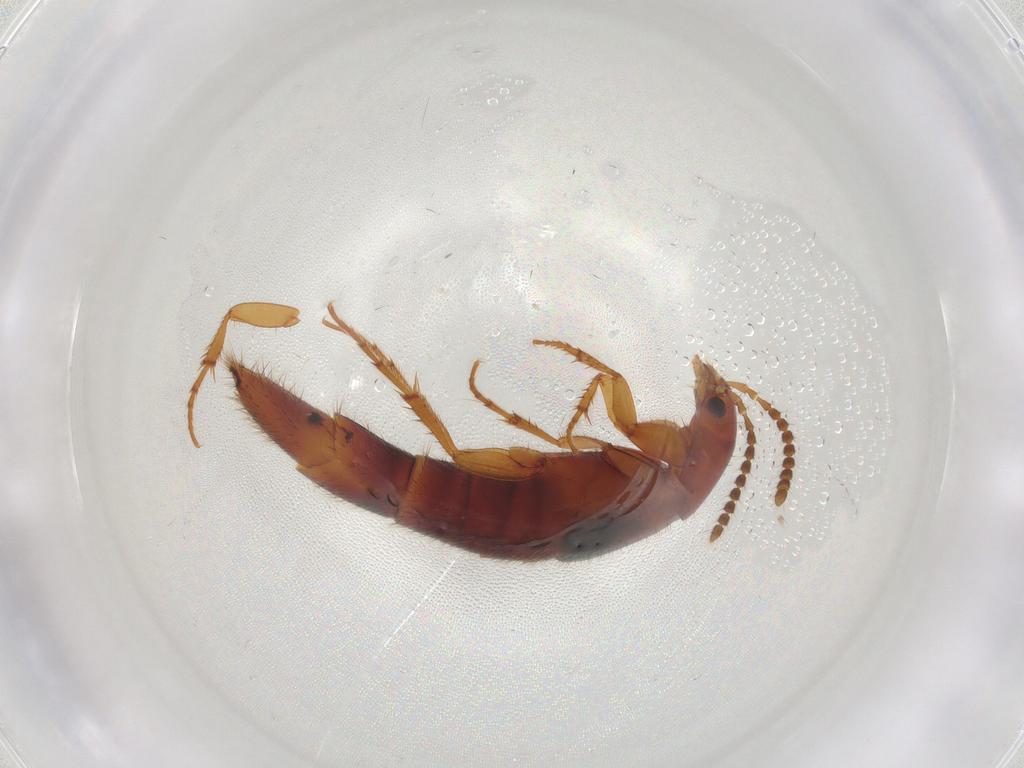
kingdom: Animalia
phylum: Arthropoda
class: Insecta
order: Coleoptera
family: Staphylinidae
